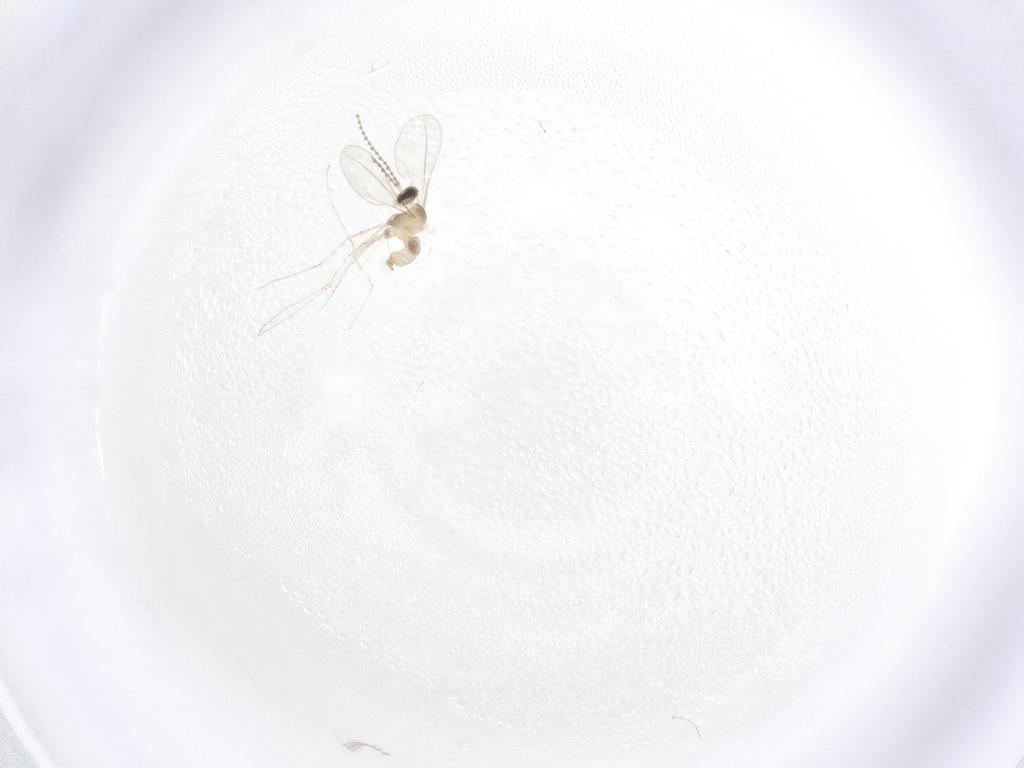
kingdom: Animalia
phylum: Arthropoda
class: Insecta
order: Diptera
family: Cecidomyiidae
